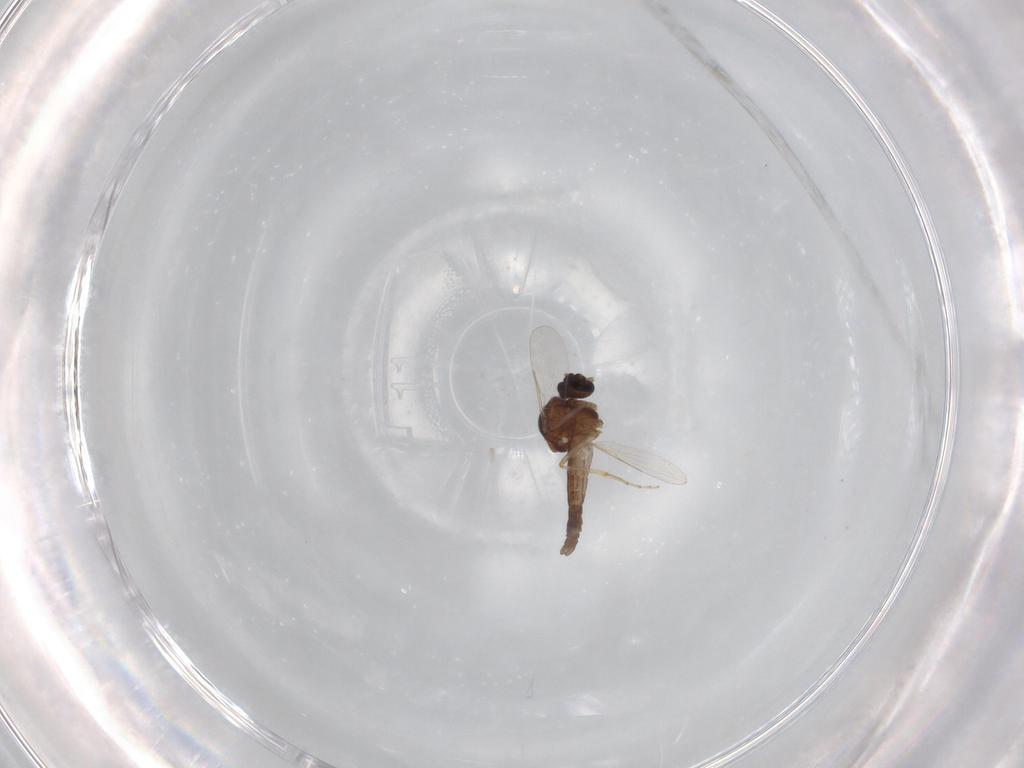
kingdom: Animalia
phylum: Arthropoda
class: Insecta
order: Diptera
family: Ceratopogonidae
